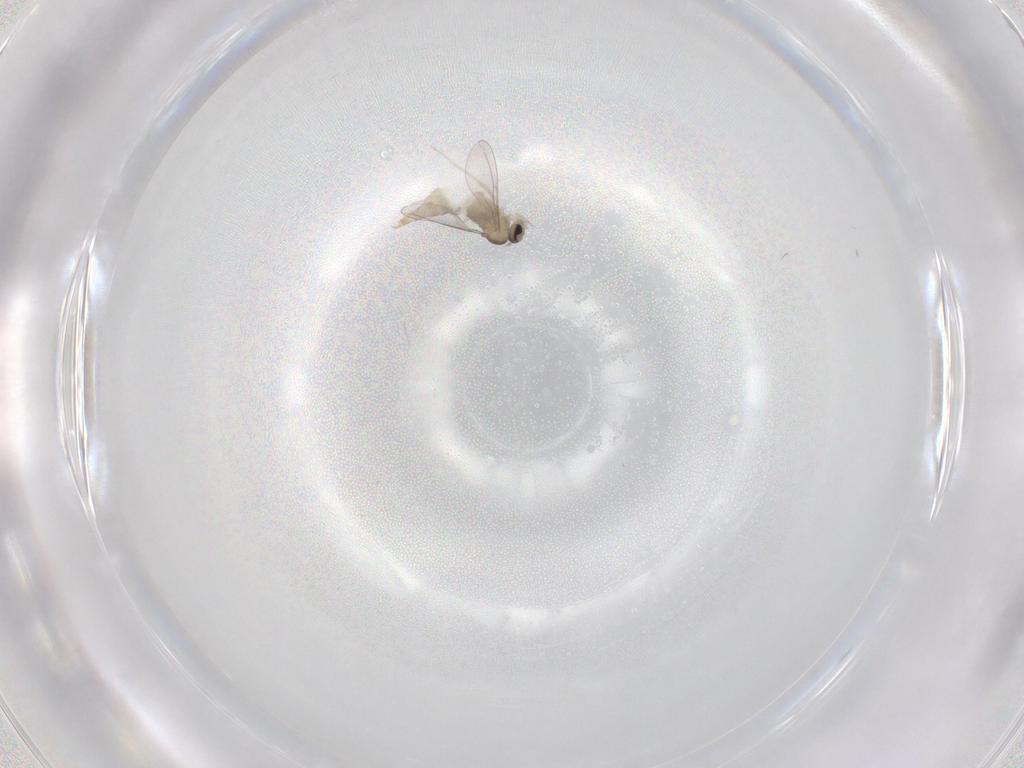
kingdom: Animalia
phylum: Arthropoda
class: Insecta
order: Diptera
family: Cecidomyiidae
